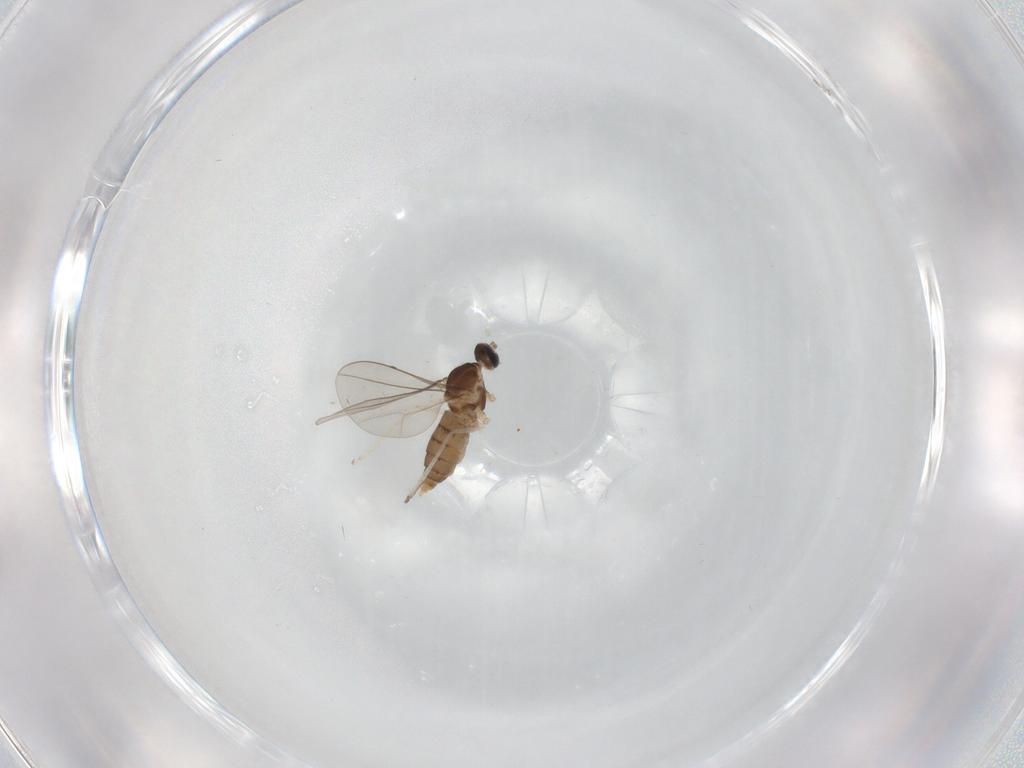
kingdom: Animalia
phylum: Arthropoda
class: Insecta
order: Diptera
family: Cecidomyiidae
